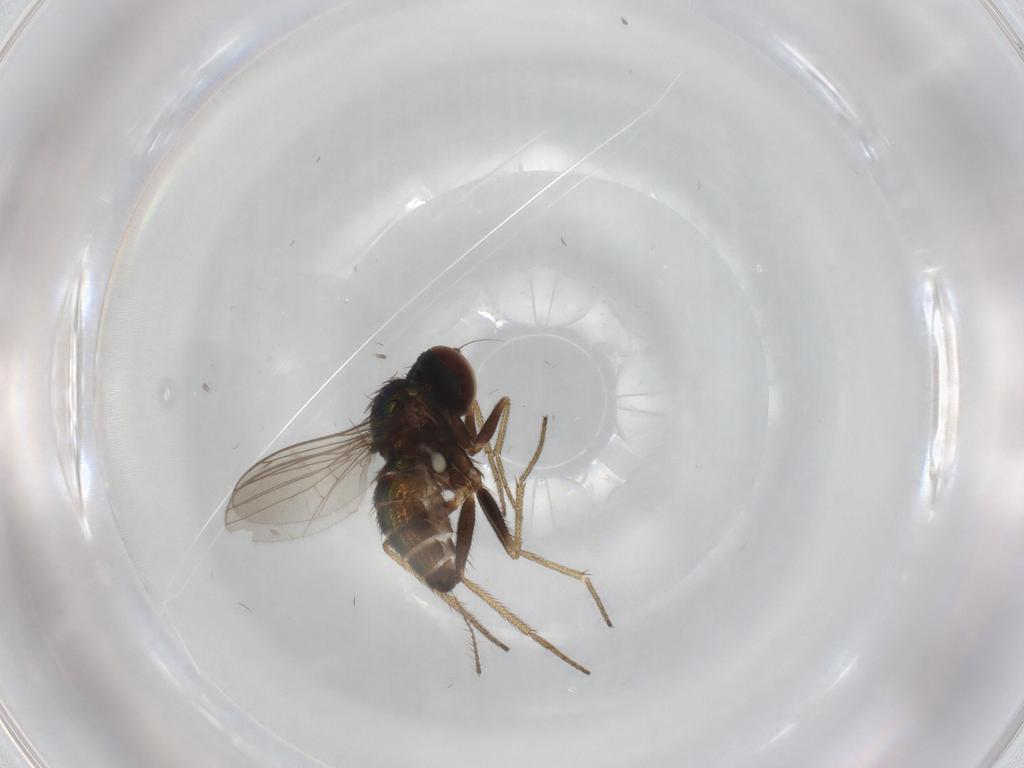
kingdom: Animalia
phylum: Arthropoda
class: Insecta
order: Diptera
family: Limoniidae
